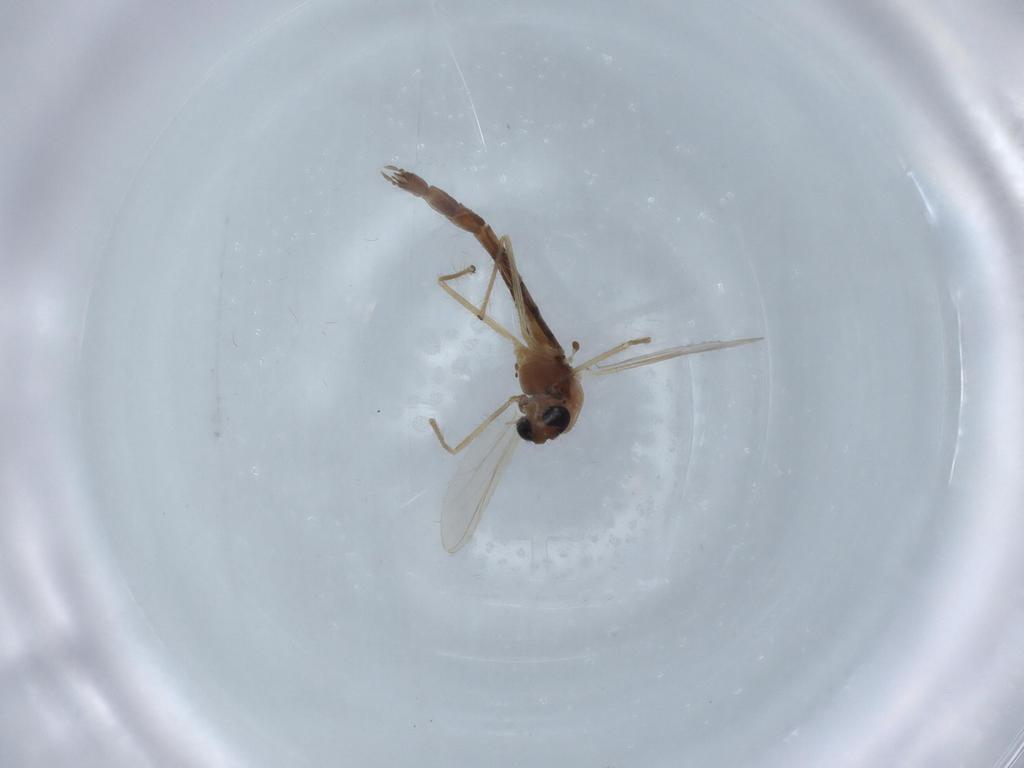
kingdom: Animalia
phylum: Arthropoda
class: Insecta
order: Diptera
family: Chironomidae
